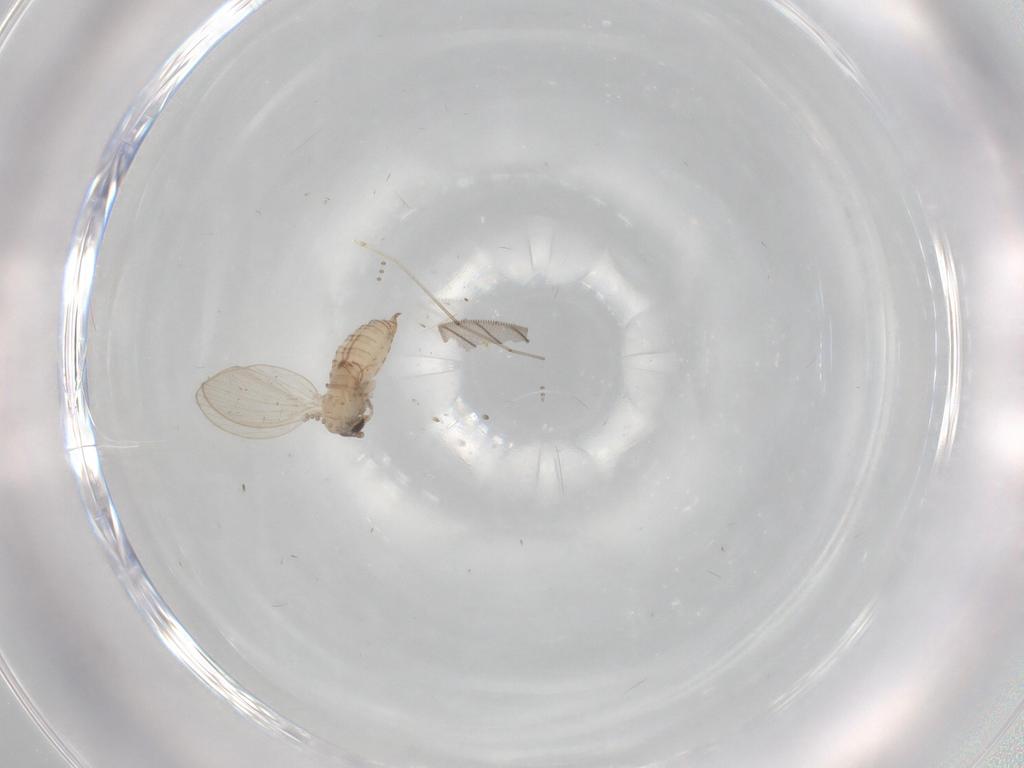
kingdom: Animalia
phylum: Arthropoda
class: Insecta
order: Diptera
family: Psychodidae
